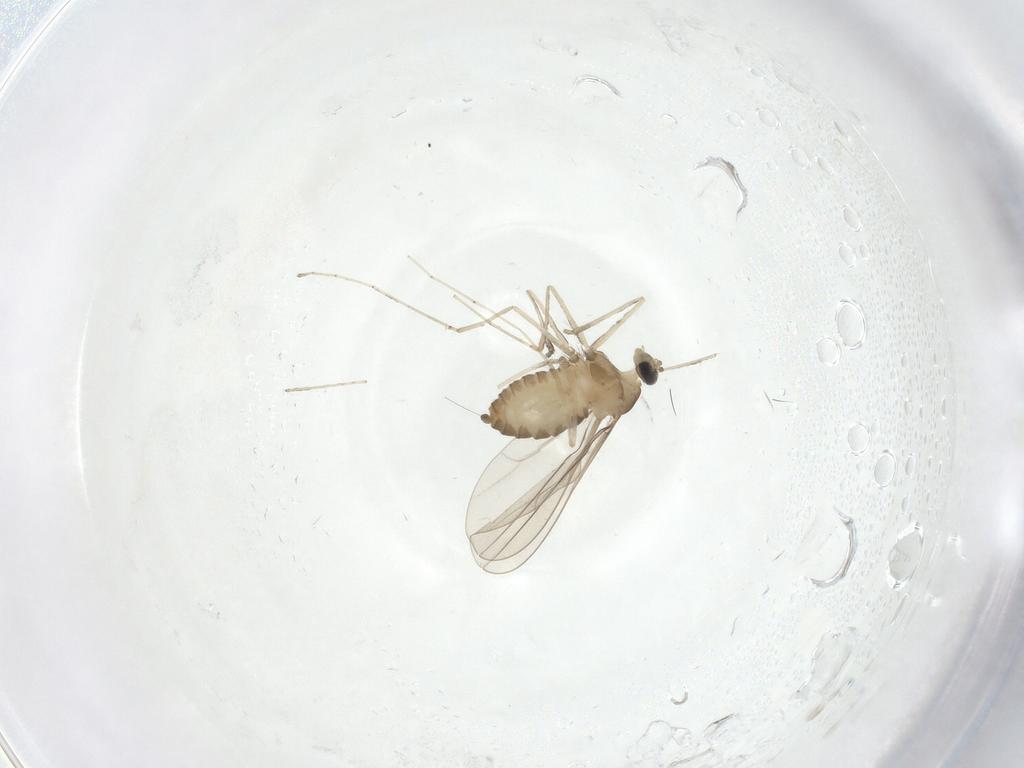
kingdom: Animalia
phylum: Arthropoda
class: Insecta
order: Diptera
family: Cecidomyiidae
